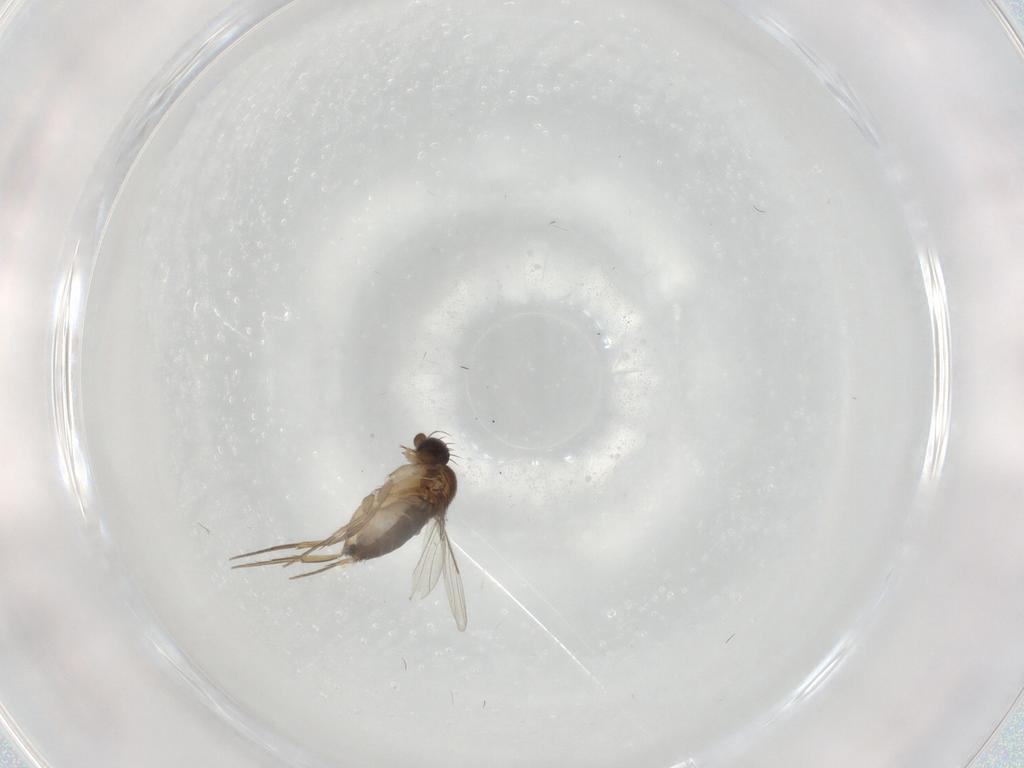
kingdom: Animalia
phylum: Arthropoda
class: Insecta
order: Diptera
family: Phoridae
